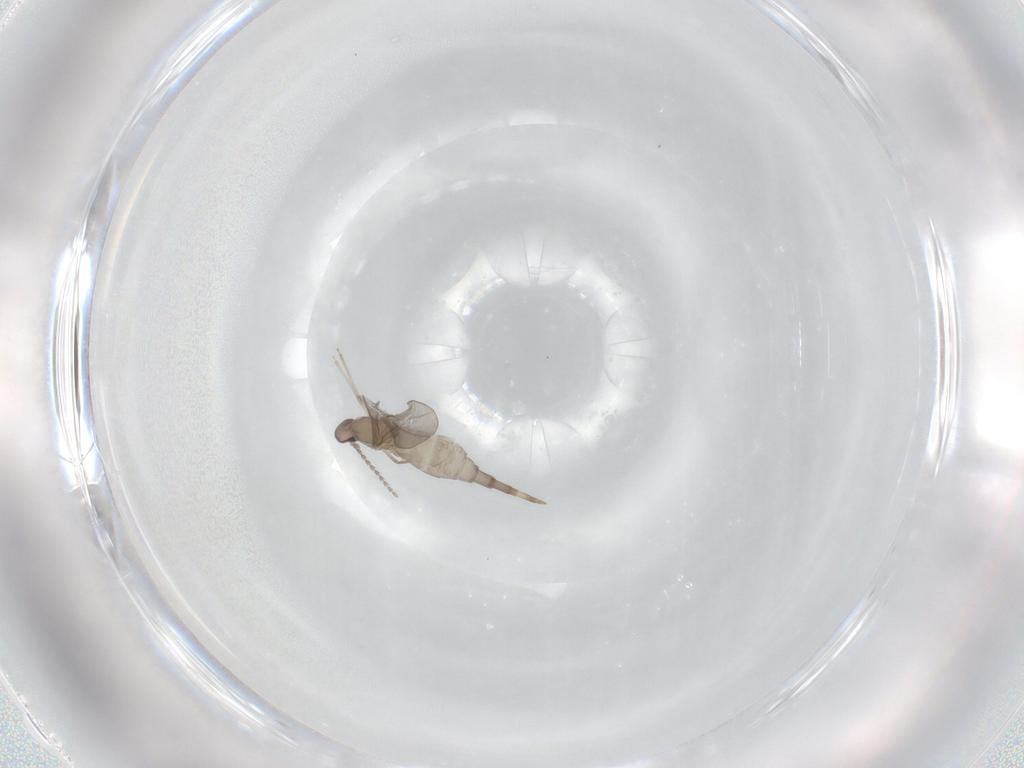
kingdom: Animalia
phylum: Arthropoda
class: Insecta
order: Diptera
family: Cecidomyiidae
